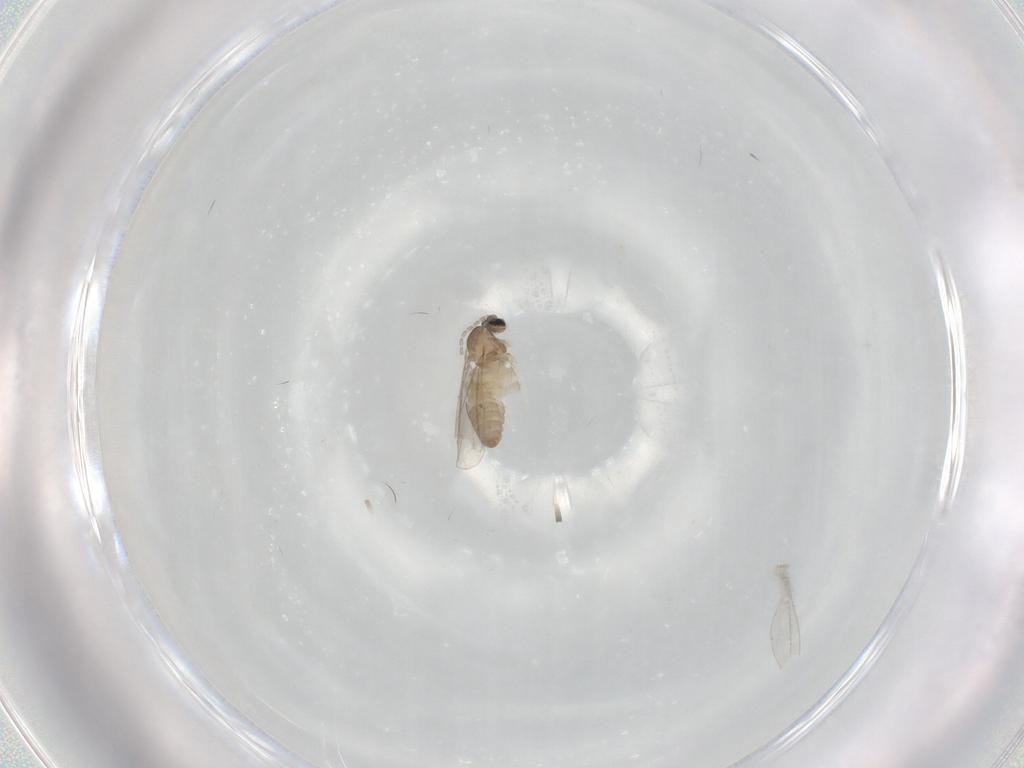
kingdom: Animalia
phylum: Arthropoda
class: Insecta
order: Diptera
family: Cecidomyiidae
